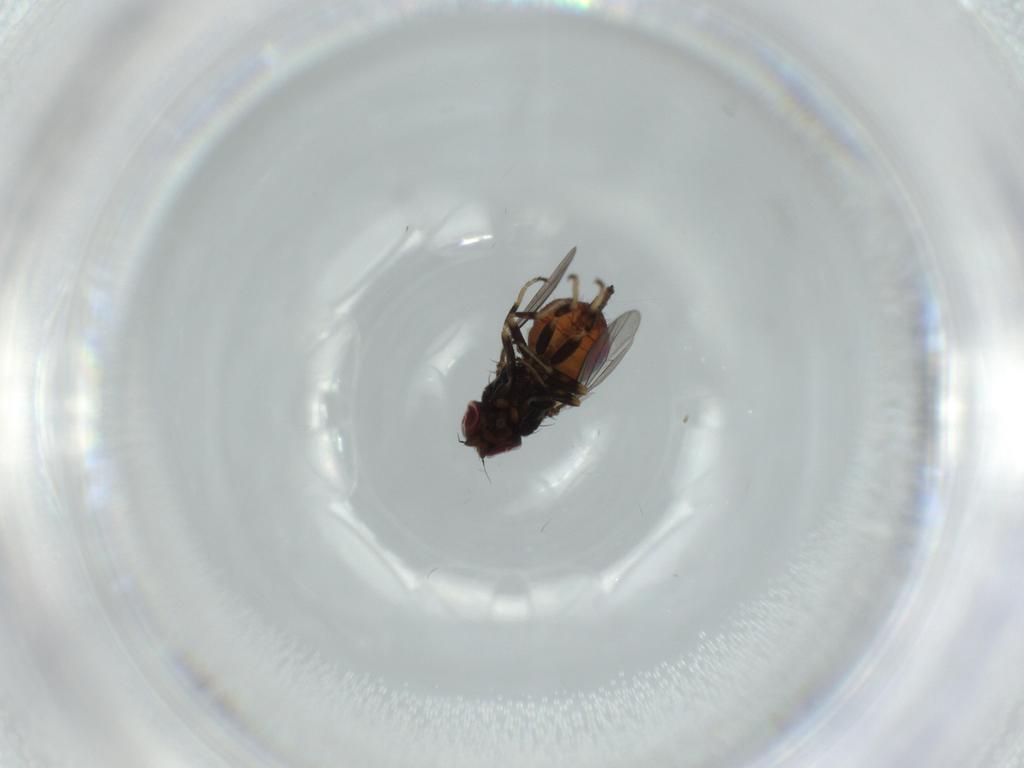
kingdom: Animalia
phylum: Arthropoda
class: Insecta
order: Diptera
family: Chloropidae
